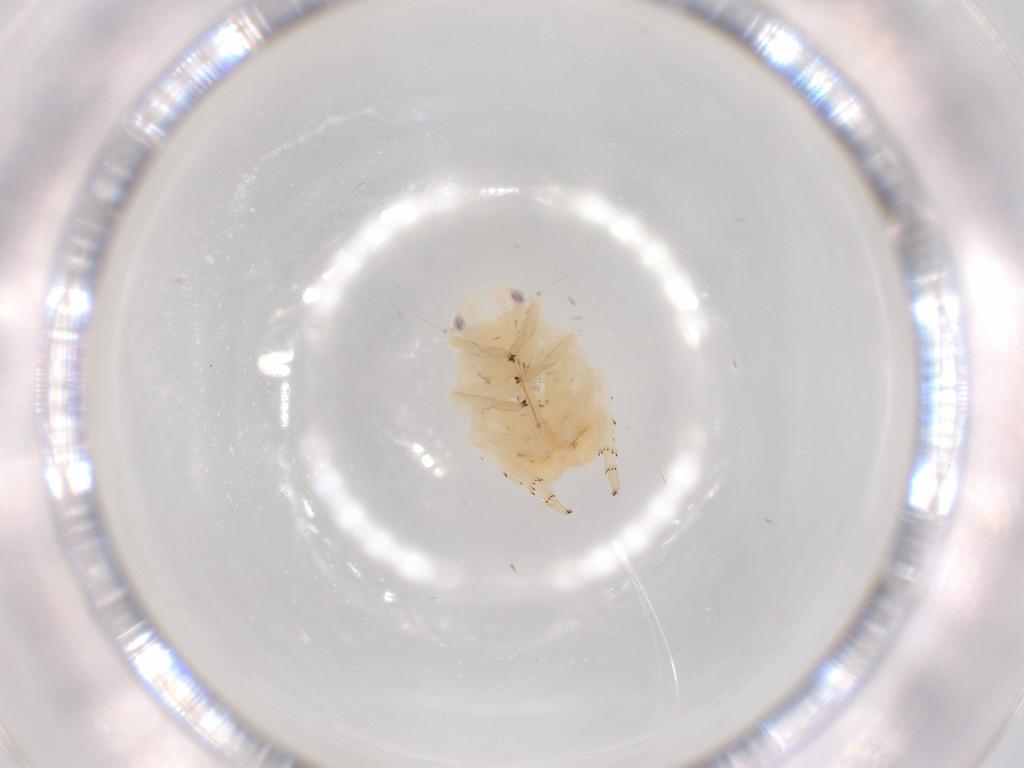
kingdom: Animalia
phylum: Arthropoda
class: Insecta
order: Hemiptera
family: Flatidae
